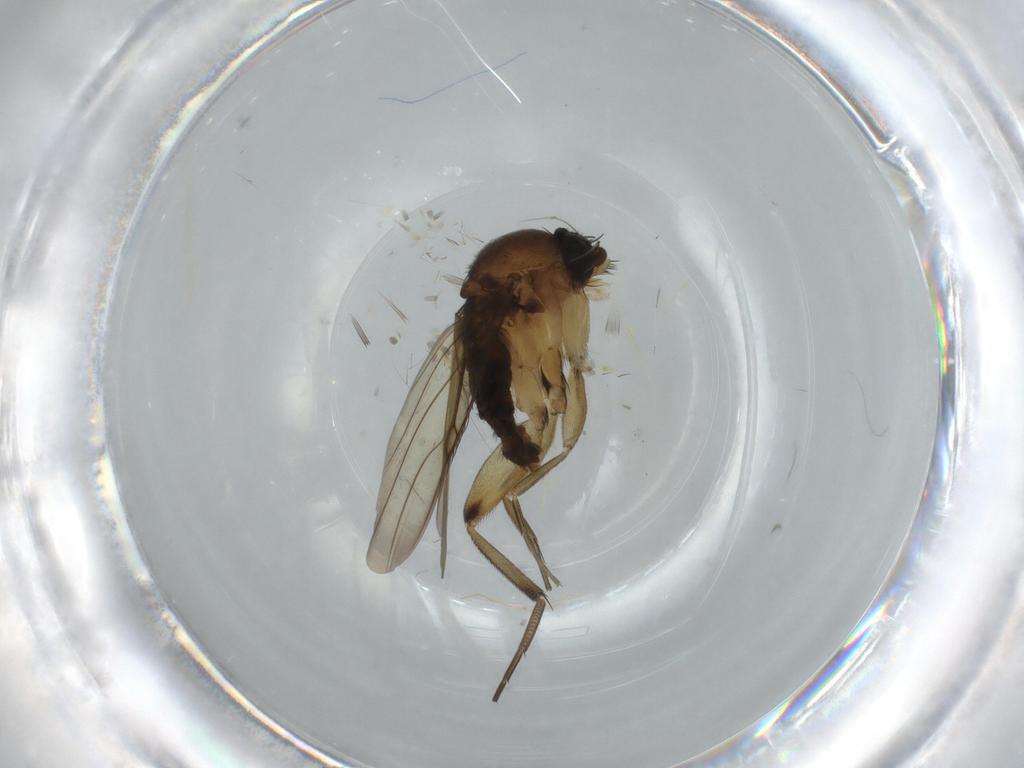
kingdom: Animalia
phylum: Arthropoda
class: Insecta
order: Diptera
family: Phoridae
